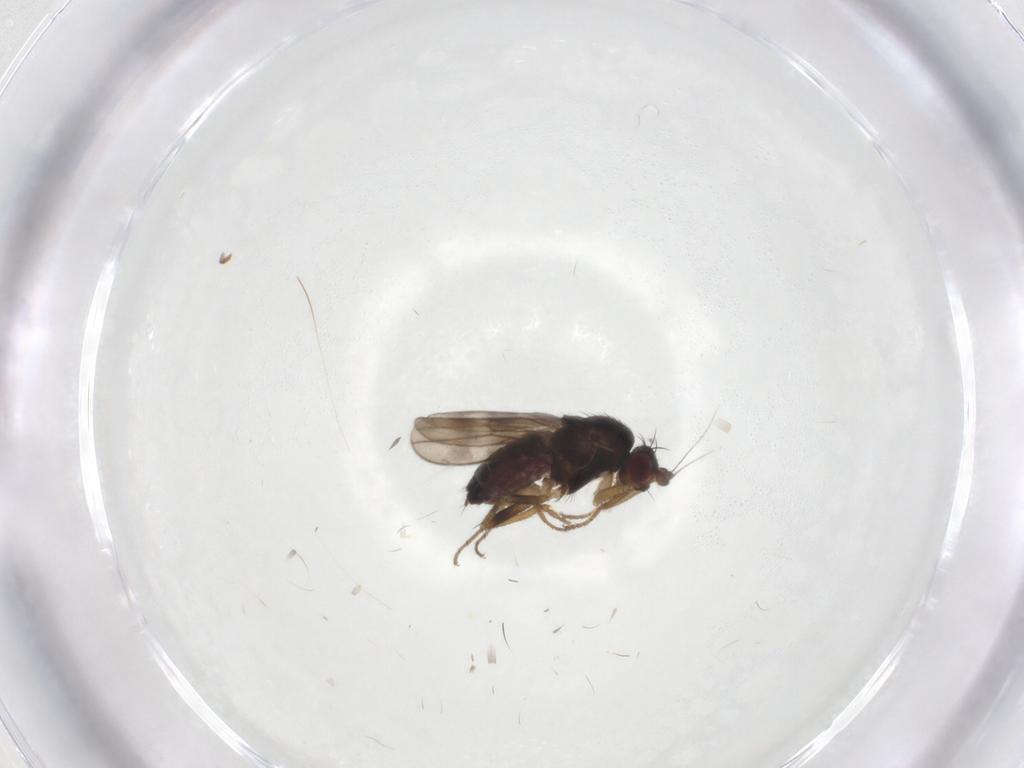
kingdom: Animalia
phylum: Arthropoda
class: Insecta
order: Diptera
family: Sphaeroceridae
